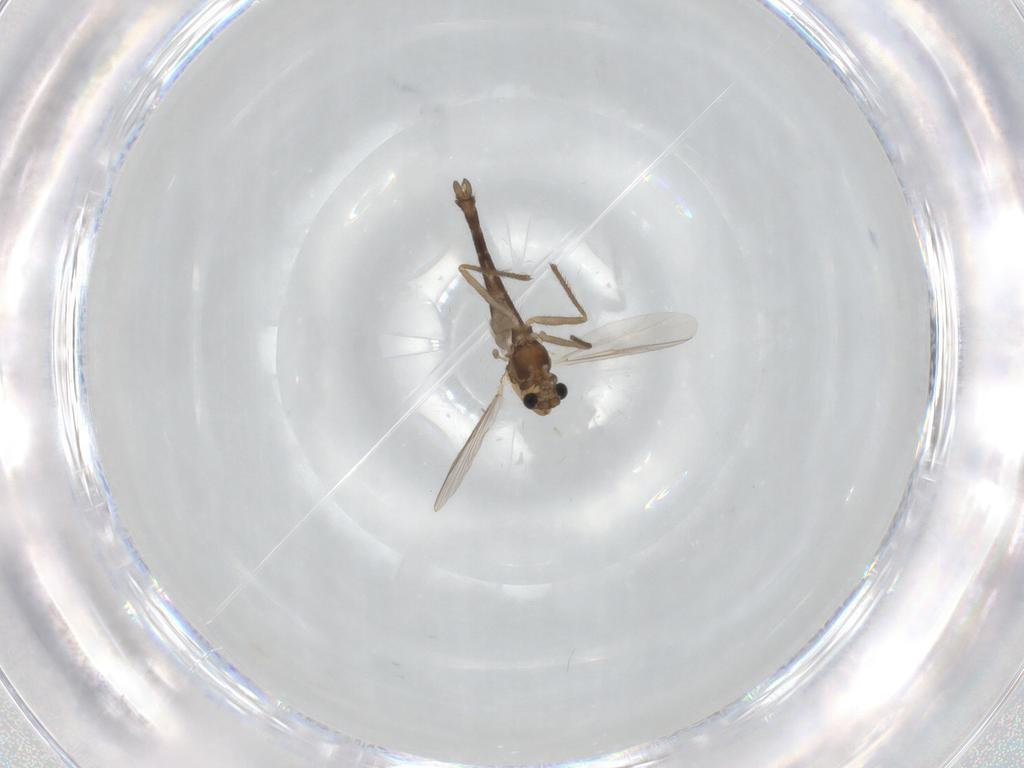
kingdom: Animalia
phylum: Arthropoda
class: Insecta
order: Diptera
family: Chironomidae
